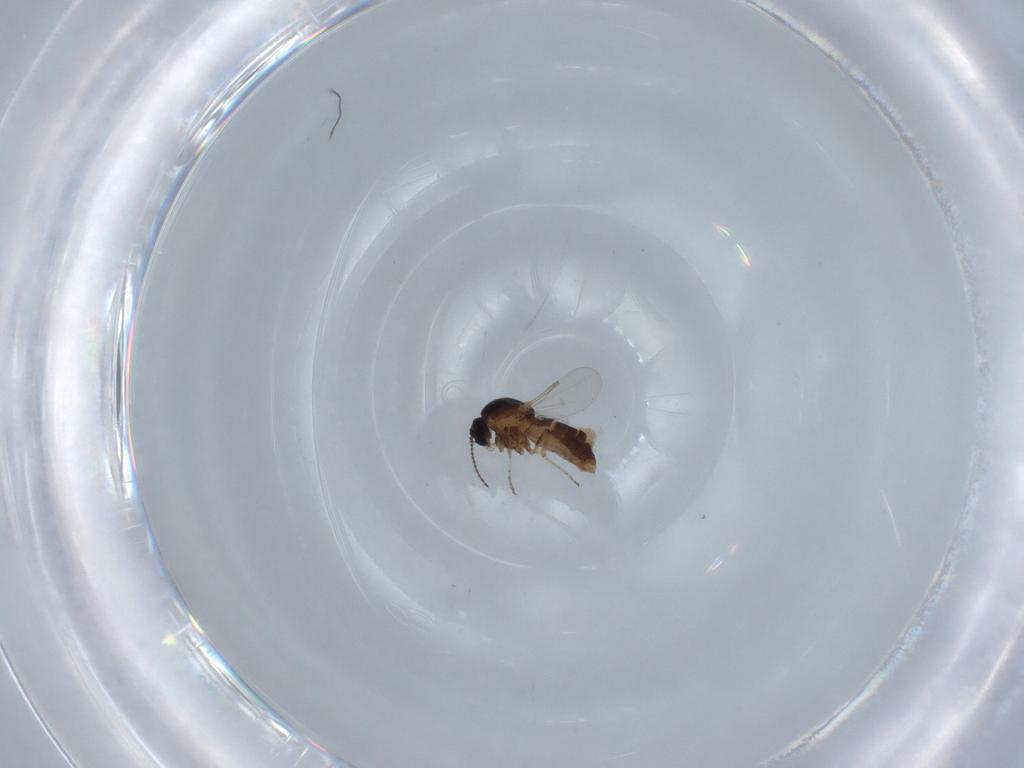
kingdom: Animalia
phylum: Arthropoda
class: Insecta
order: Diptera
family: Ceratopogonidae
